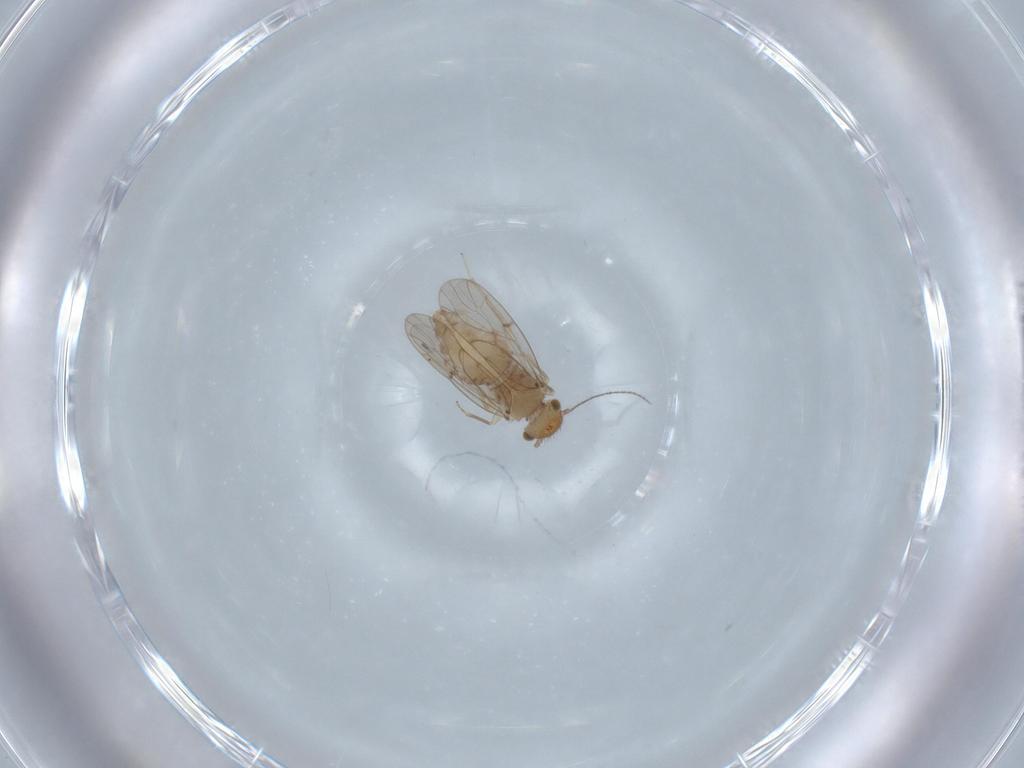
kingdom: Animalia
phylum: Arthropoda
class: Insecta
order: Psocodea
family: Ectopsocidae
